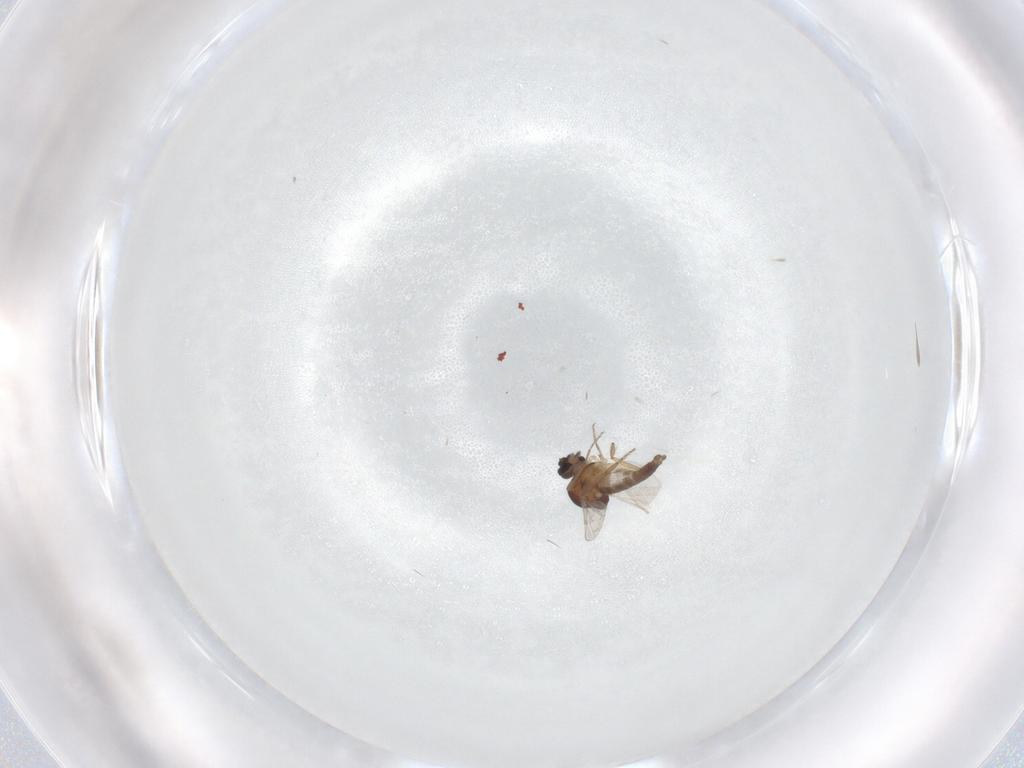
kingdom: Animalia
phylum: Arthropoda
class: Insecta
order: Diptera
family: Ceratopogonidae
